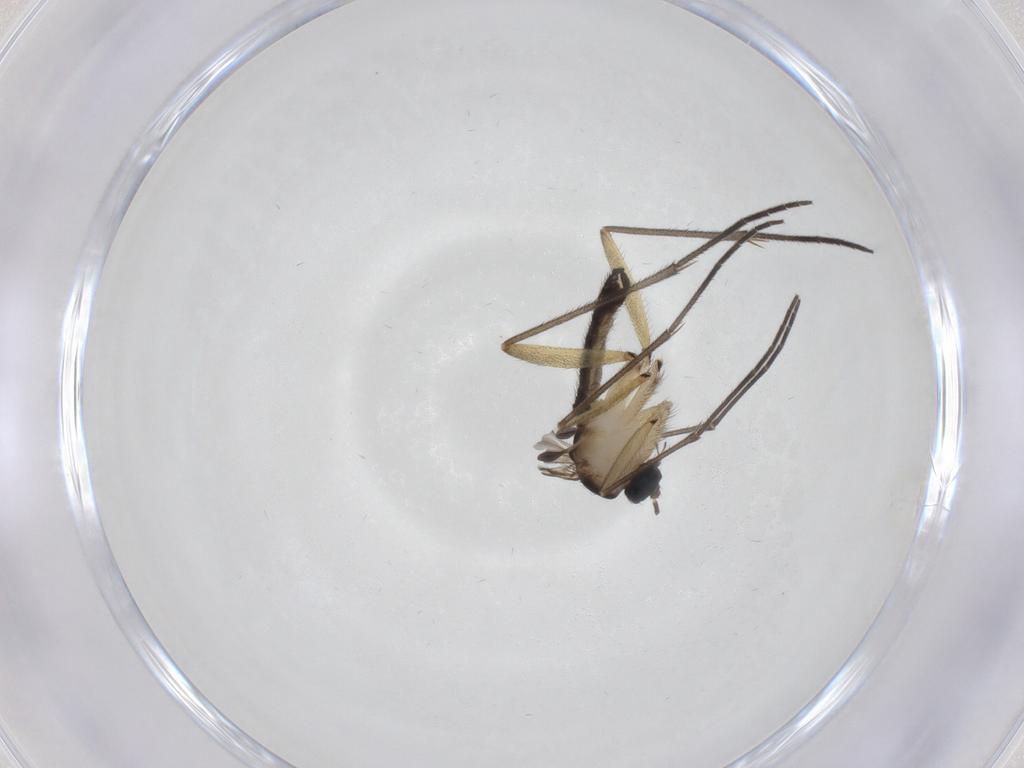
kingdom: Animalia
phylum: Arthropoda
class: Insecta
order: Diptera
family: Sciaridae
